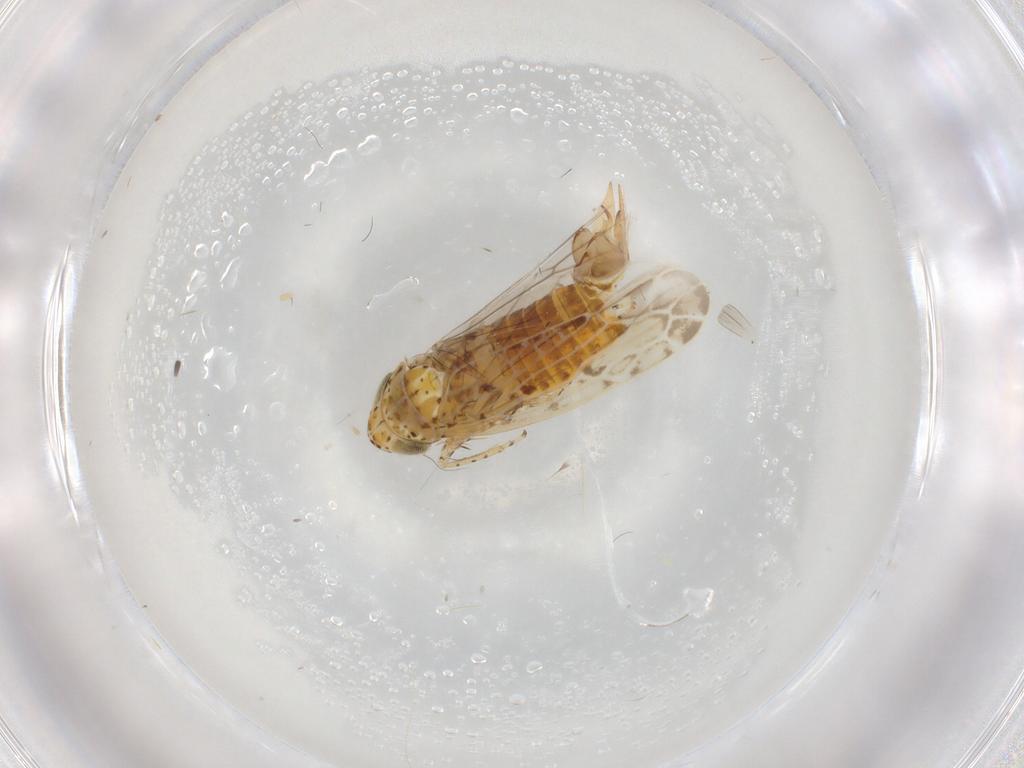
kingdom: Animalia
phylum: Arthropoda
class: Insecta
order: Hemiptera
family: Cicadellidae
